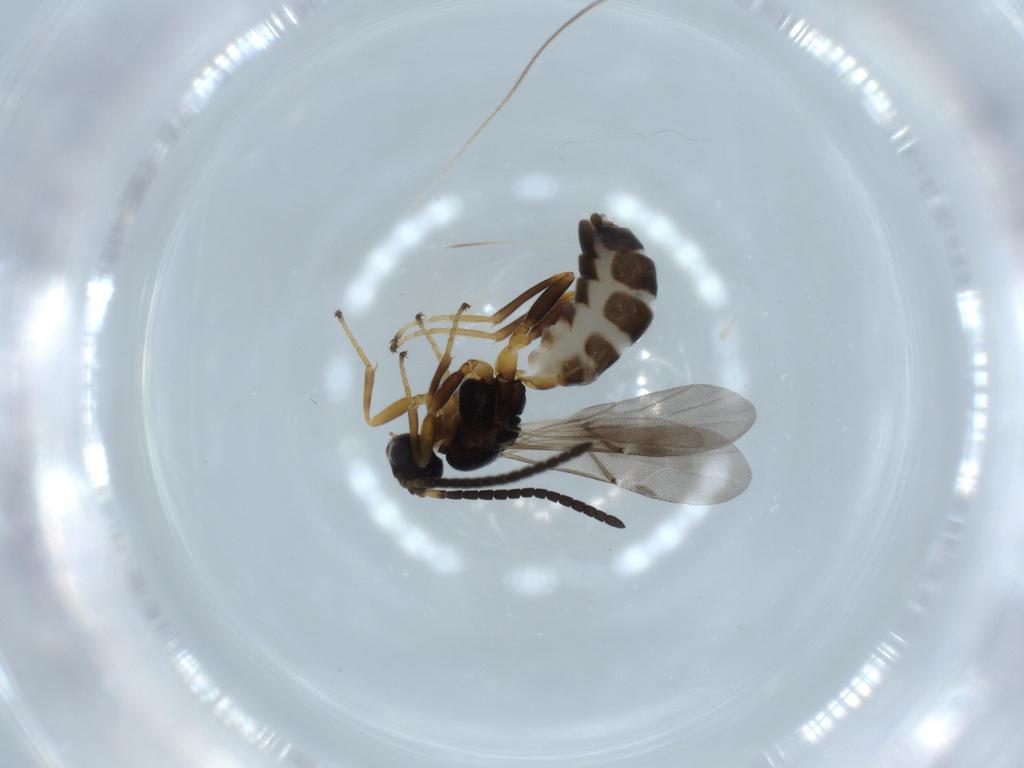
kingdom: Animalia
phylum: Arthropoda
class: Insecta
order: Hymenoptera
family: Braconidae
